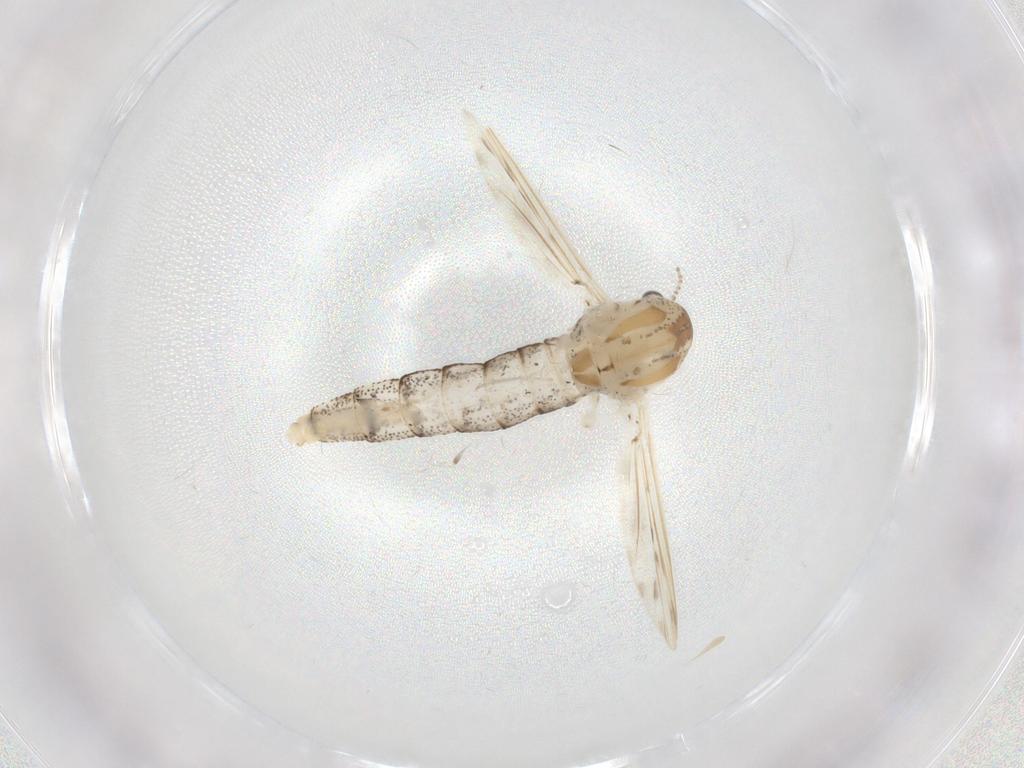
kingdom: Animalia
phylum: Arthropoda
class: Insecta
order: Diptera
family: Chaoboridae
